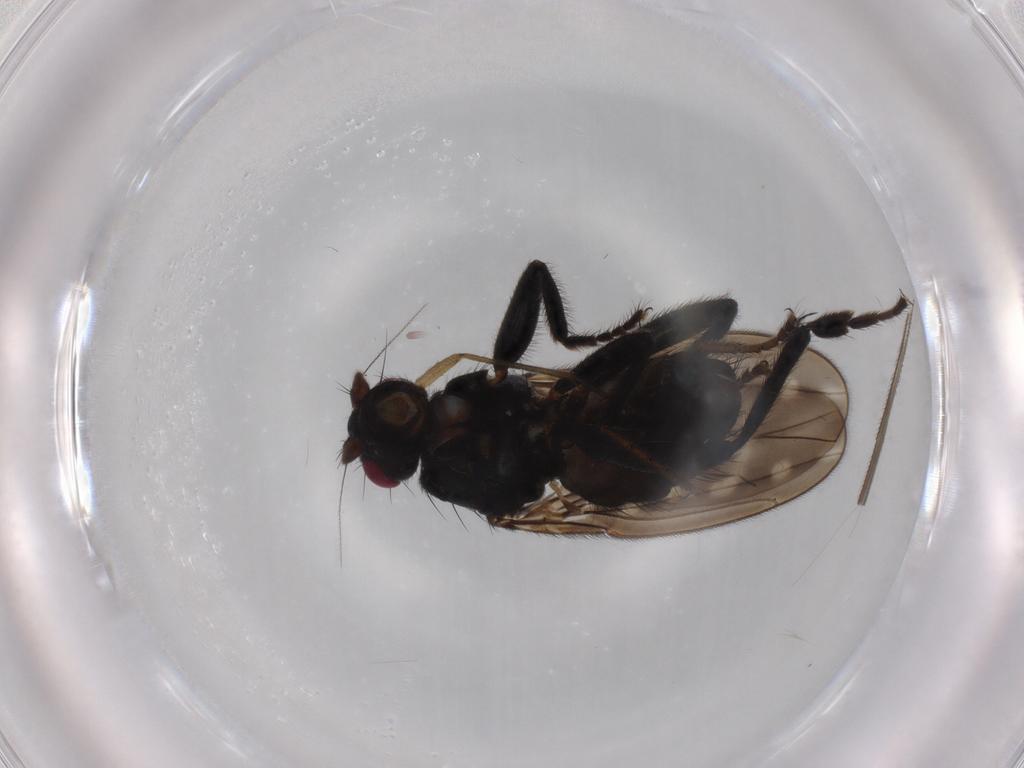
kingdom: Animalia
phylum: Arthropoda
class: Insecta
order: Diptera
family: Sphaeroceridae
